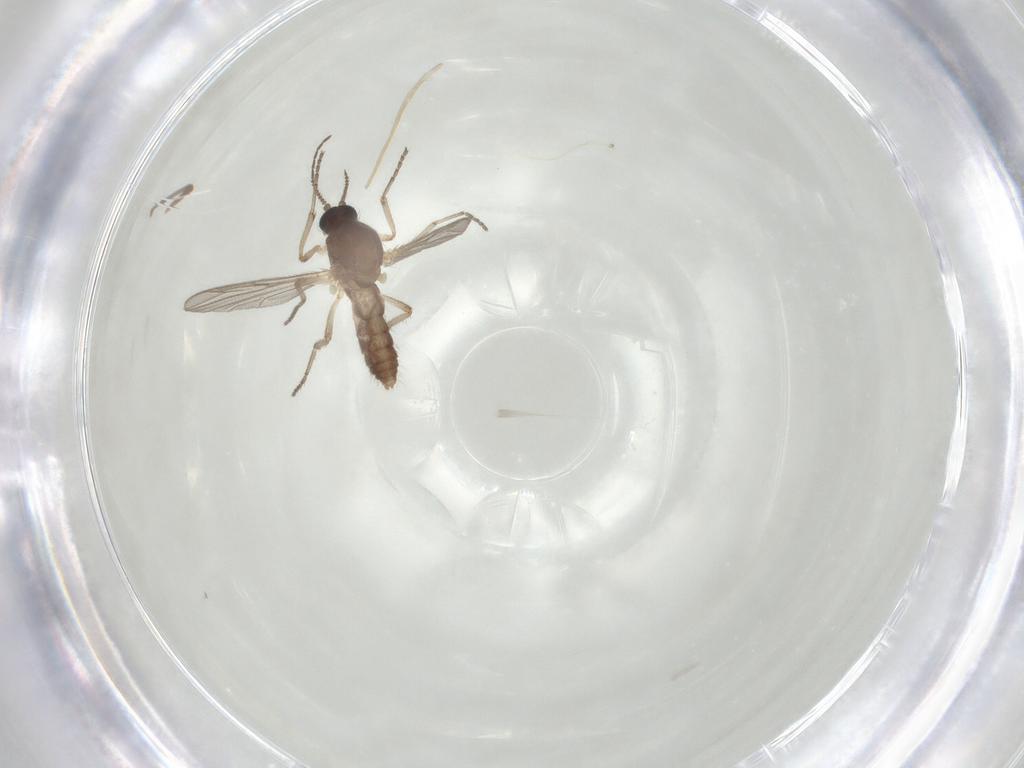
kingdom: Animalia
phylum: Arthropoda
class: Insecta
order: Diptera
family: Ceratopogonidae
